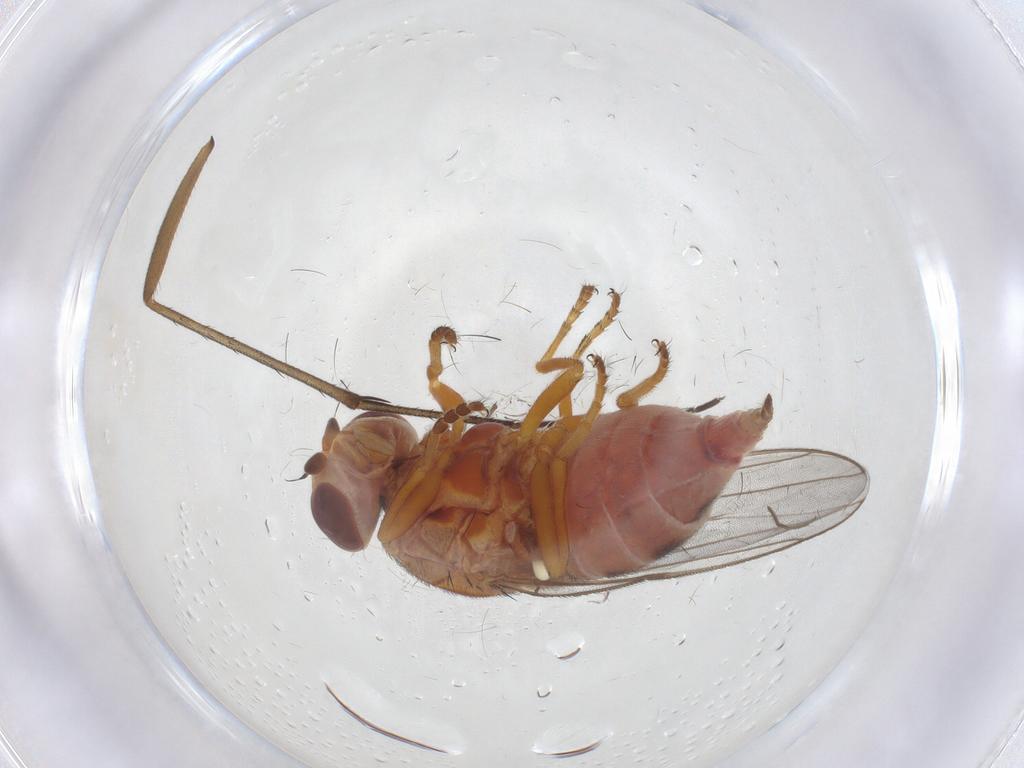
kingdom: Animalia
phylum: Arthropoda
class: Insecta
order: Diptera
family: Chloropidae
